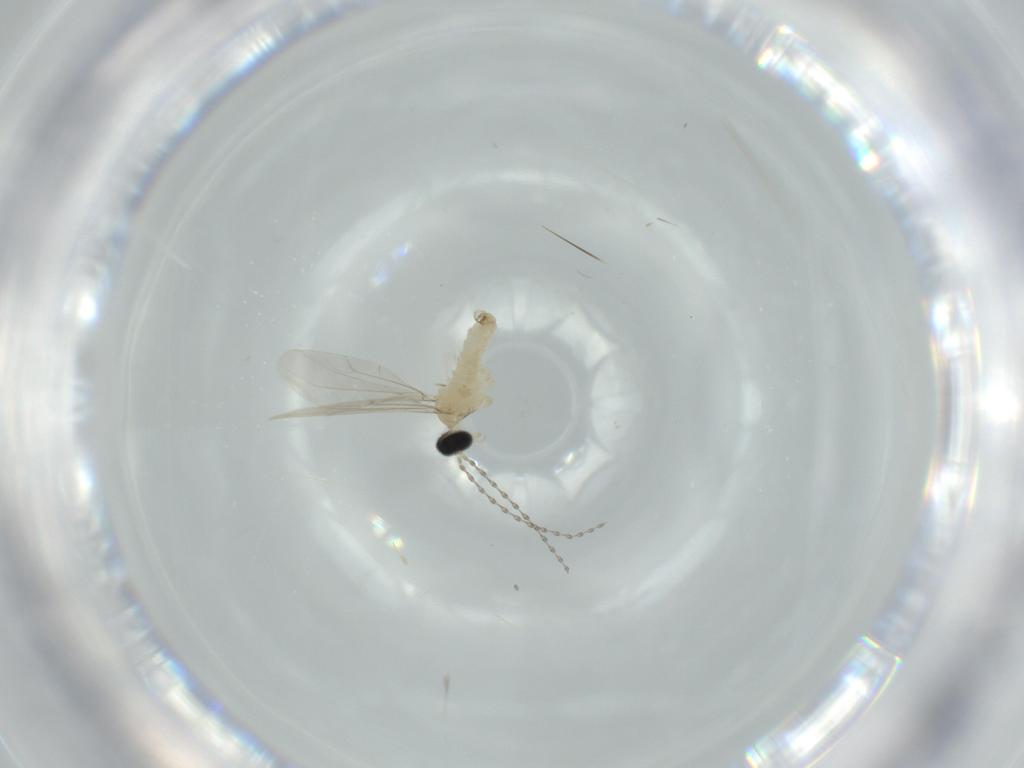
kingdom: Animalia
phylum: Arthropoda
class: Insecta
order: Diptera
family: Cecidomyiidae
